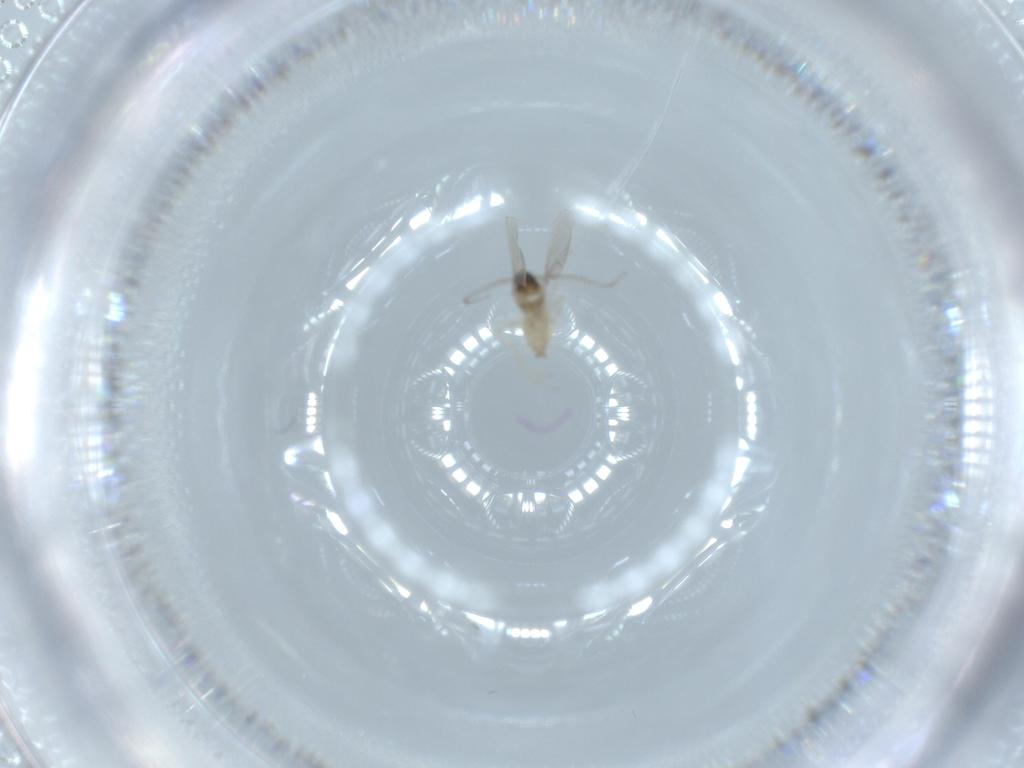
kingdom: Animalia
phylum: Arthropoda
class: Insecta
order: Diptera
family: Cecidomyiidae
